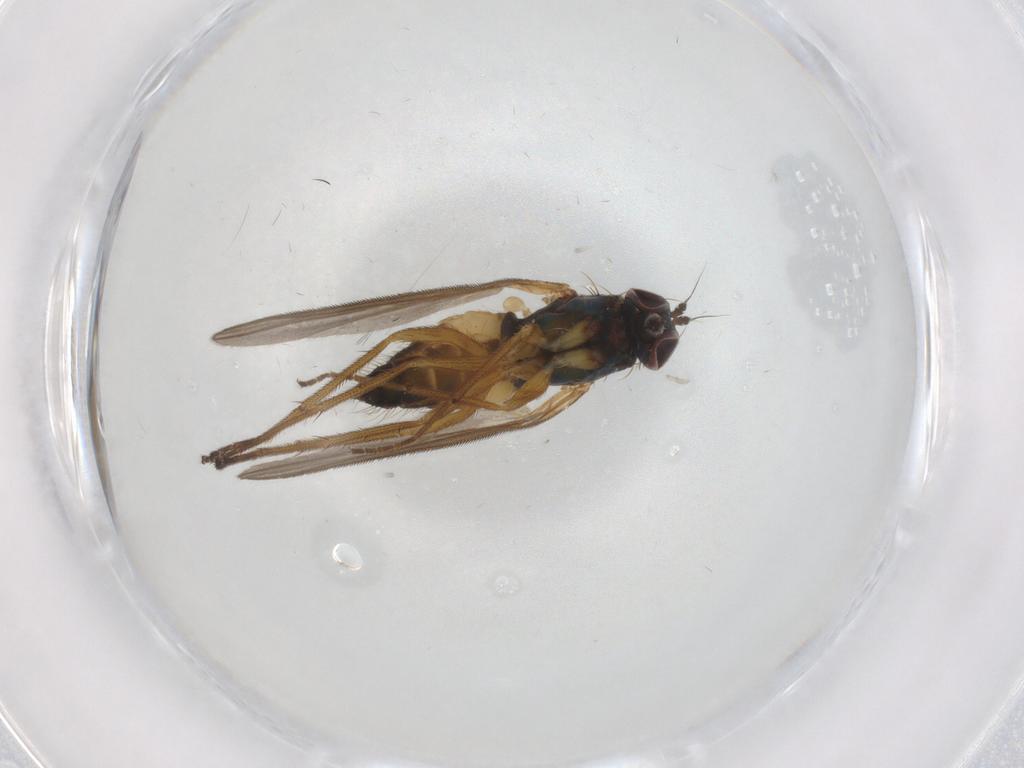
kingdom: Animalia
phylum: Arthropoda
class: Insecta
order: Diptera
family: Dolichopodidae
